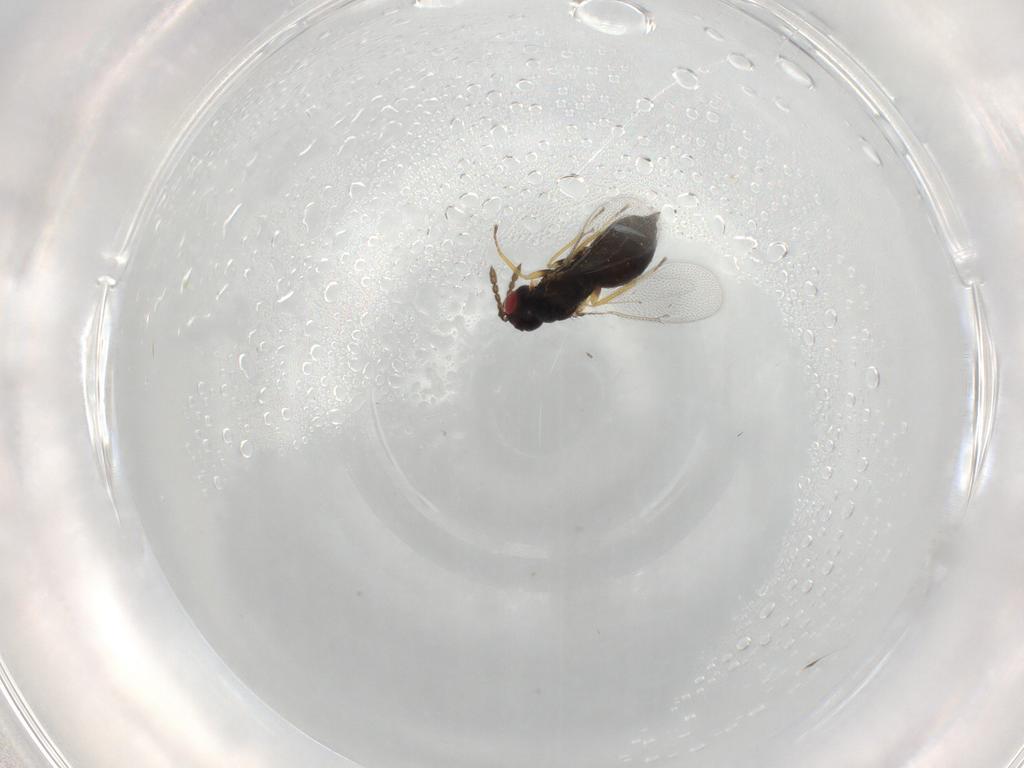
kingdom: Animalia
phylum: Arthropoda
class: Insecta
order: Hymenoptera
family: Eulophidae
